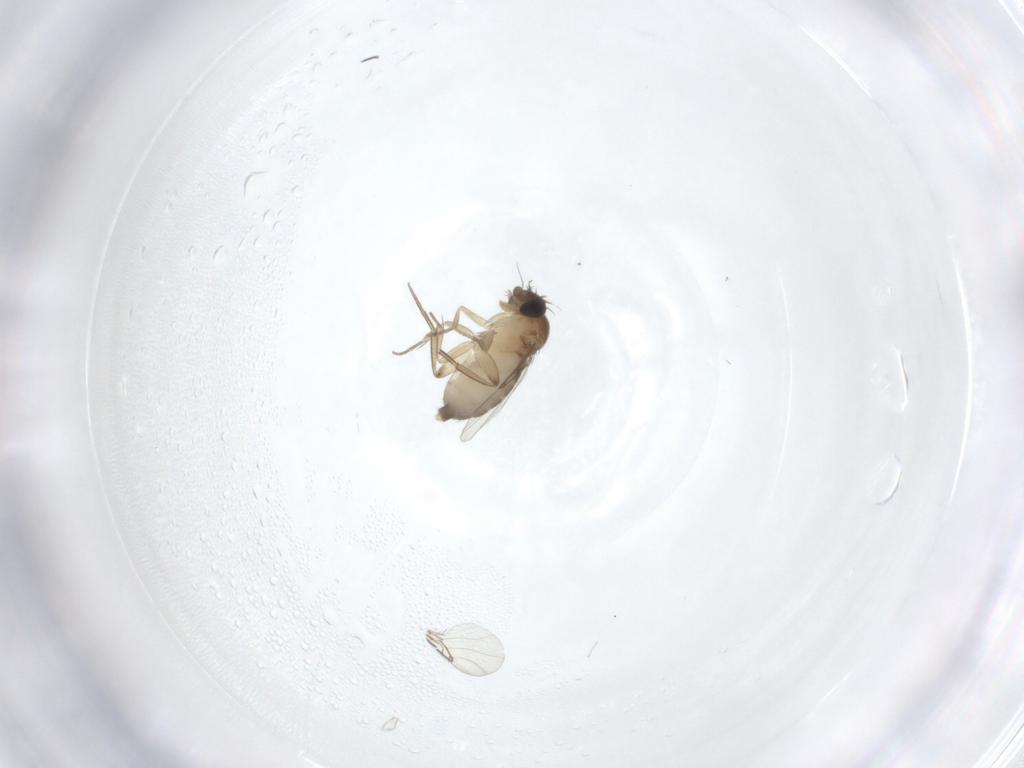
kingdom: Animalia
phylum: Arthropoda
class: Insecta
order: Diptera
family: Phoridae
